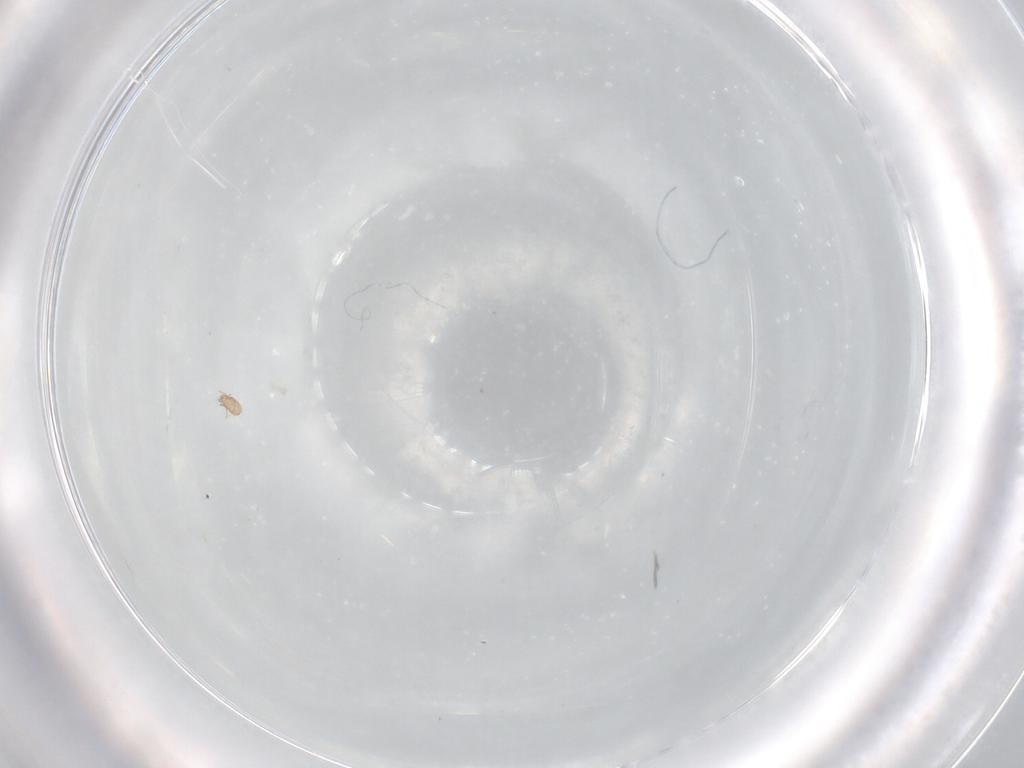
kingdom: Animalia
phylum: Arthropoda
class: Arachnida
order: Sarcoptiformes
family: Eremaeidae
